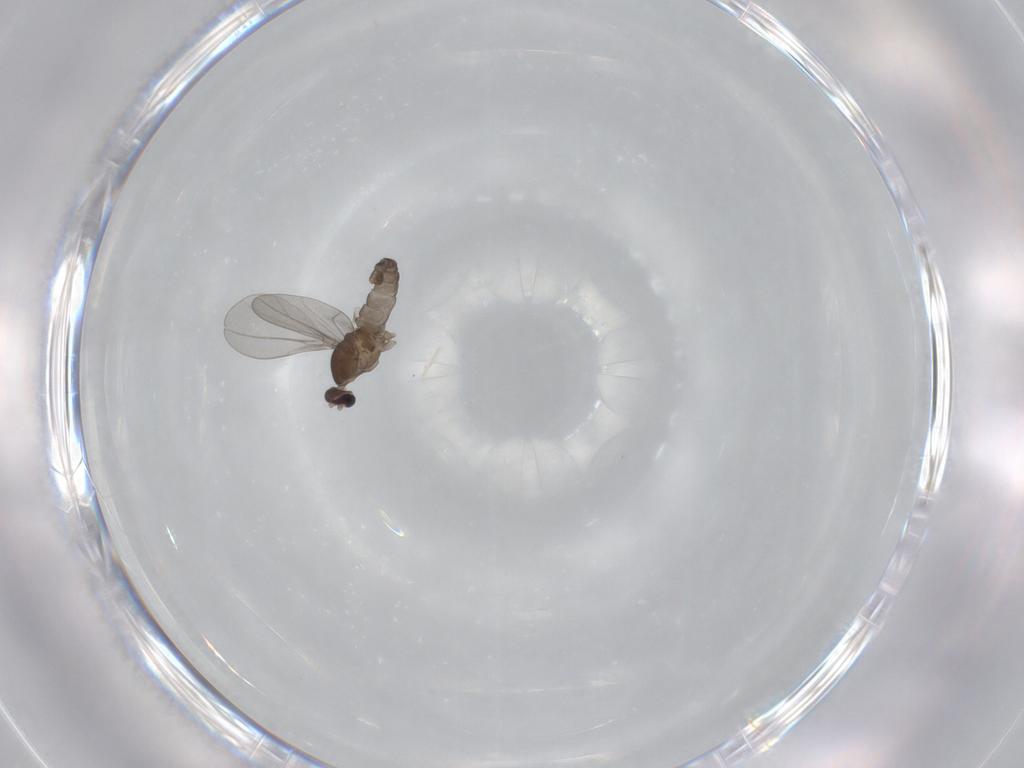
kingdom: Animalia
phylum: Arthropoda
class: Insecta
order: Diptera
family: Cecidomyiidae
